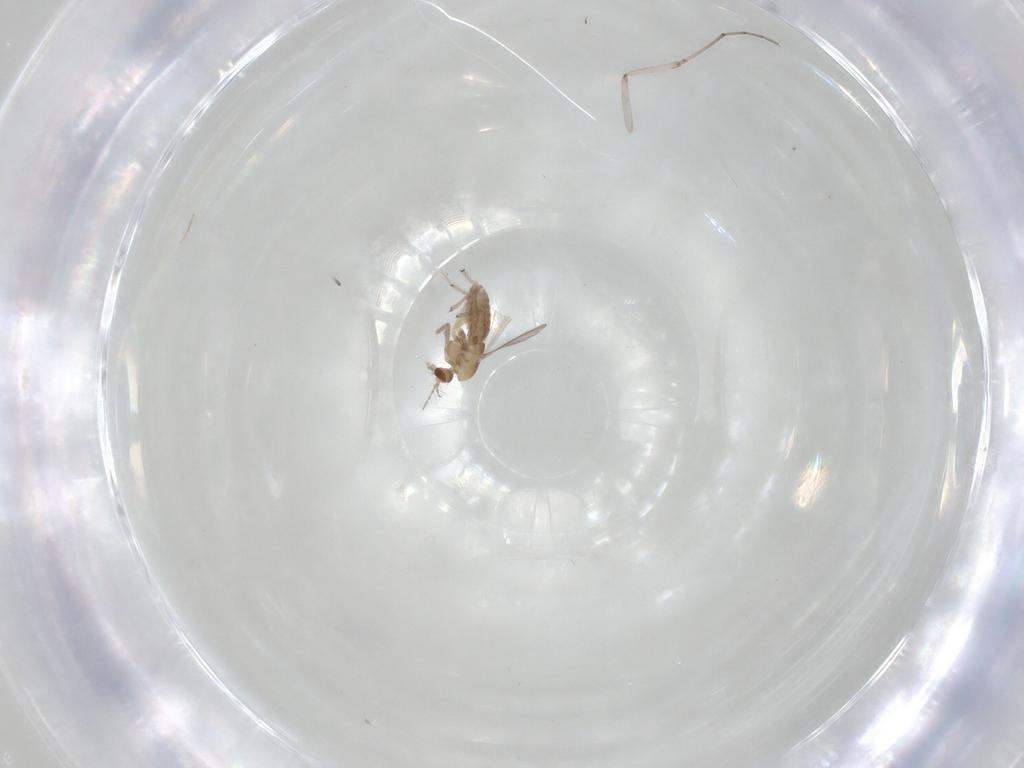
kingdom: Animalia
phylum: Arthropoda
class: Insecta
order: Diptera
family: Chironomidae
